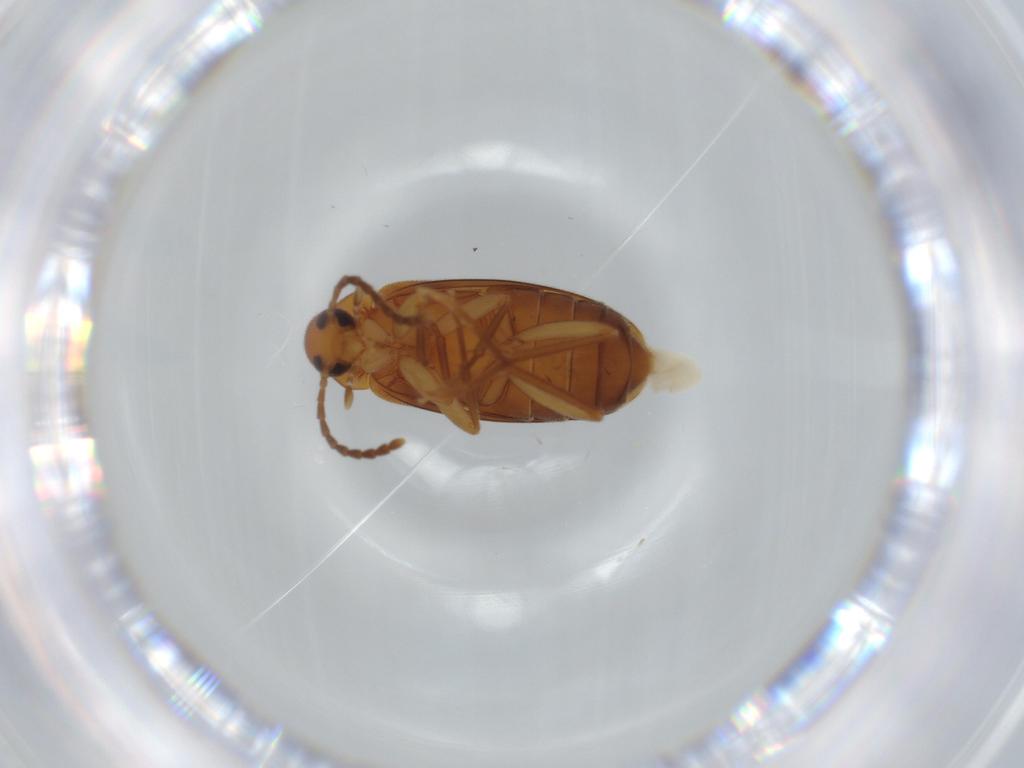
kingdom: Animalia
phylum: Arthropoda
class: Insecta
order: Coleoptera
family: Scraptiidae
